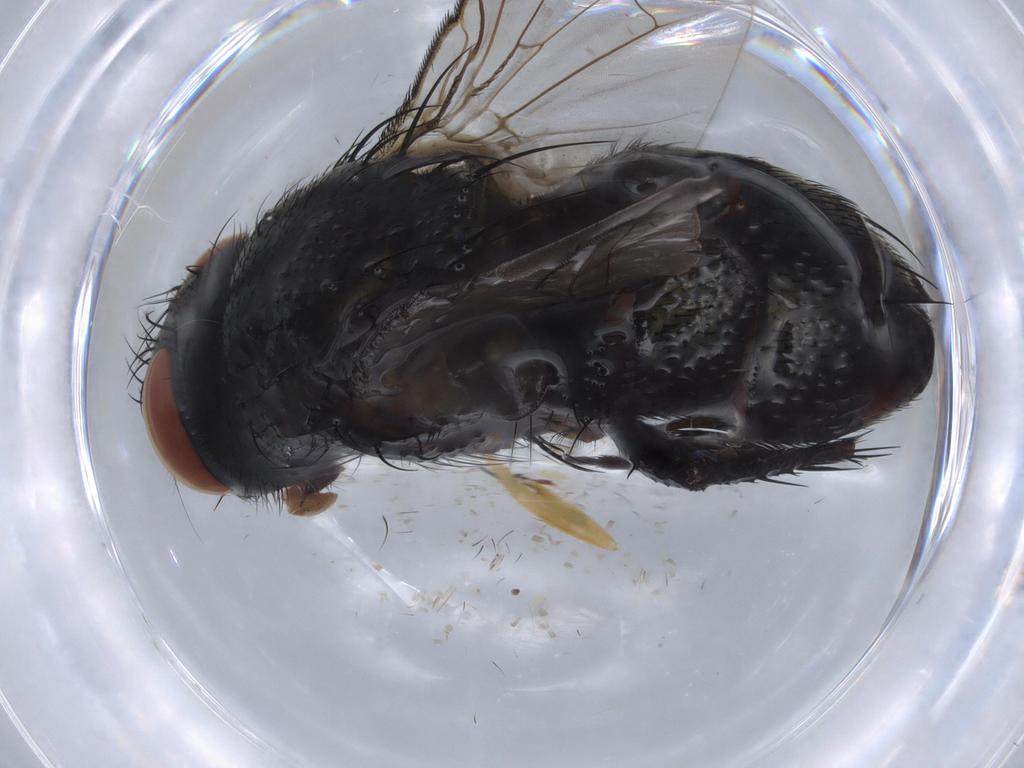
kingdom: Animalia
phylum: Arthropoda
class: Insecta
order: Diptera
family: Sarcophagidae
